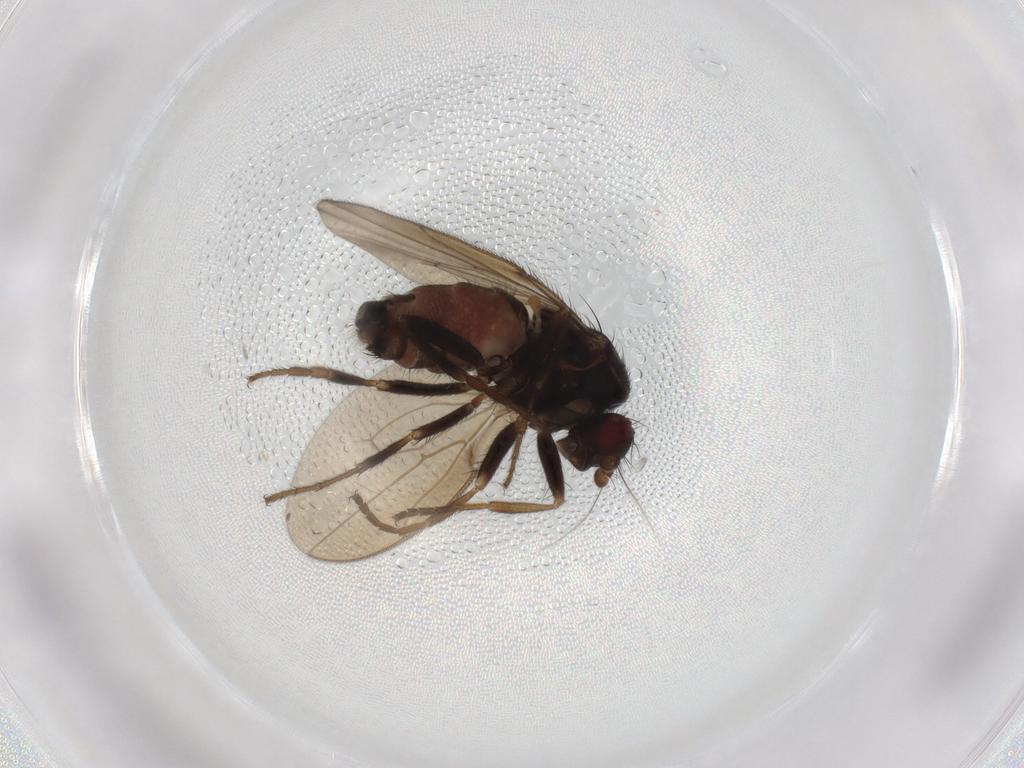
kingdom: Animalia
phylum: Arthropoda
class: Insecta
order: Diptera
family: Sphaeroceridae
